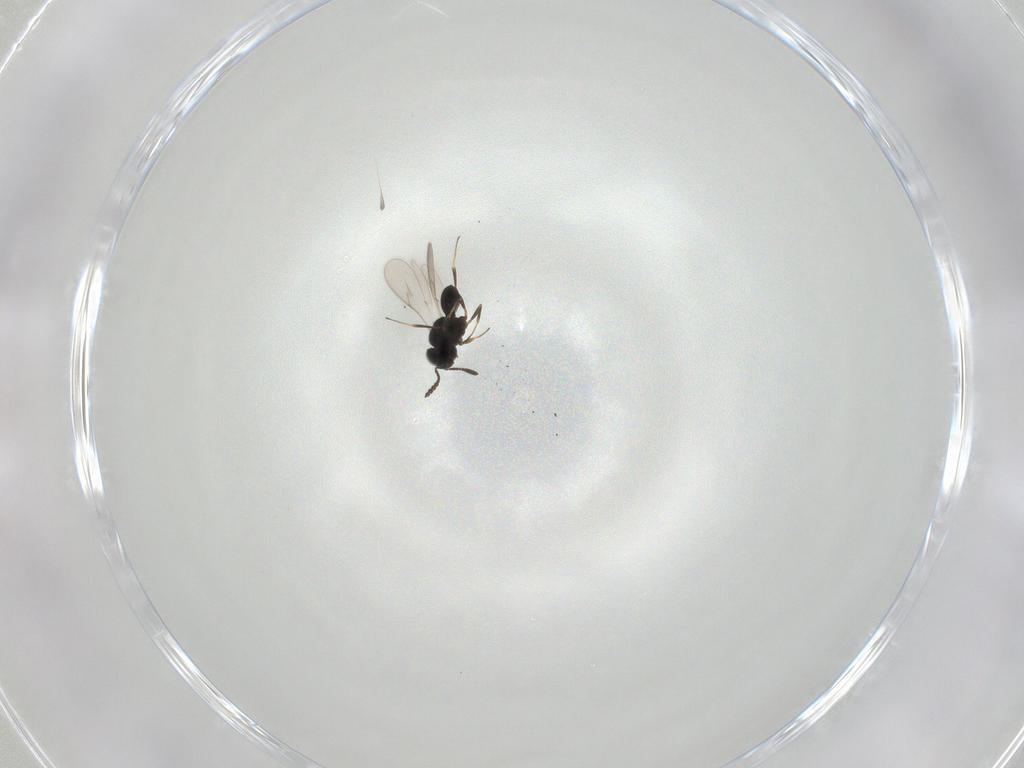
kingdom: Animalia
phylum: Arthropoda
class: Insecta
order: Hymenoptera
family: Scelionidae
